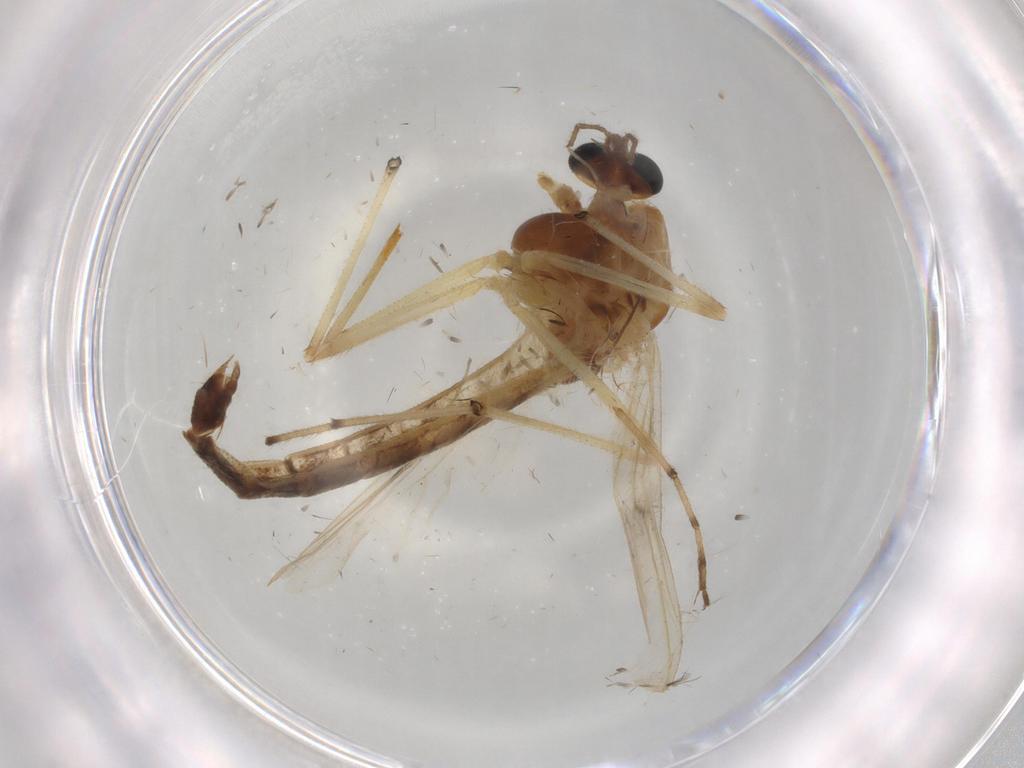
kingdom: Animalia
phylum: Arthropoda
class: Insecta
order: Diptera
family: Chironomidae
